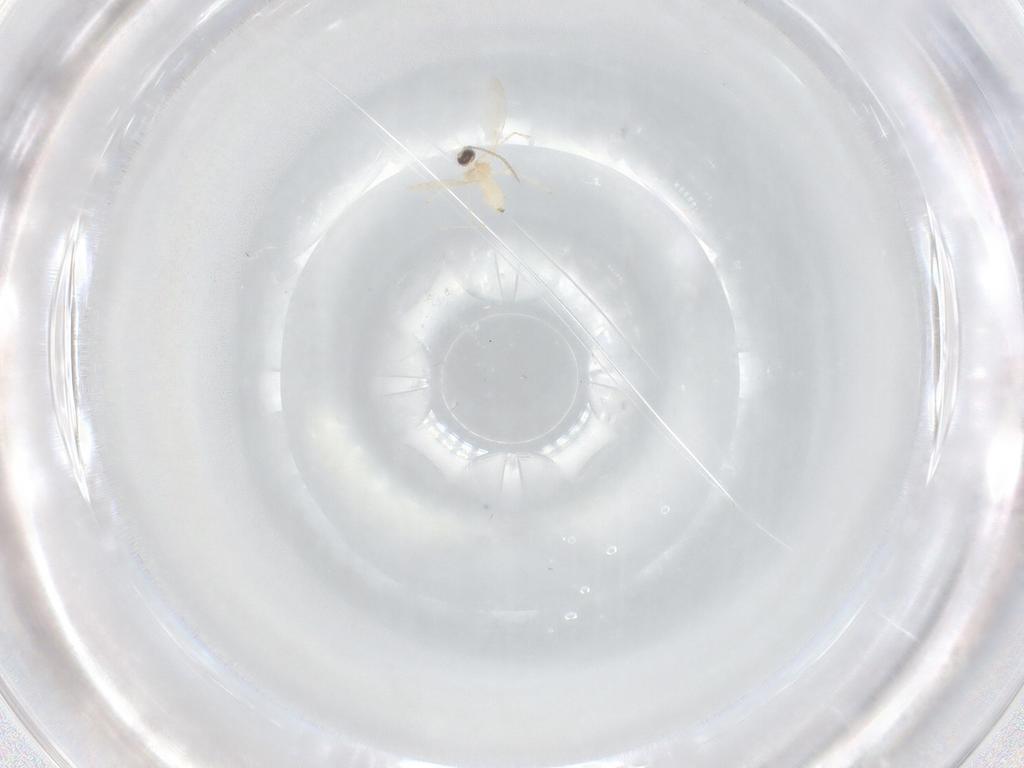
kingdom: Animalia
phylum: Arthropoda
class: Insecta
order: Diptera
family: Cecidomyiidae
